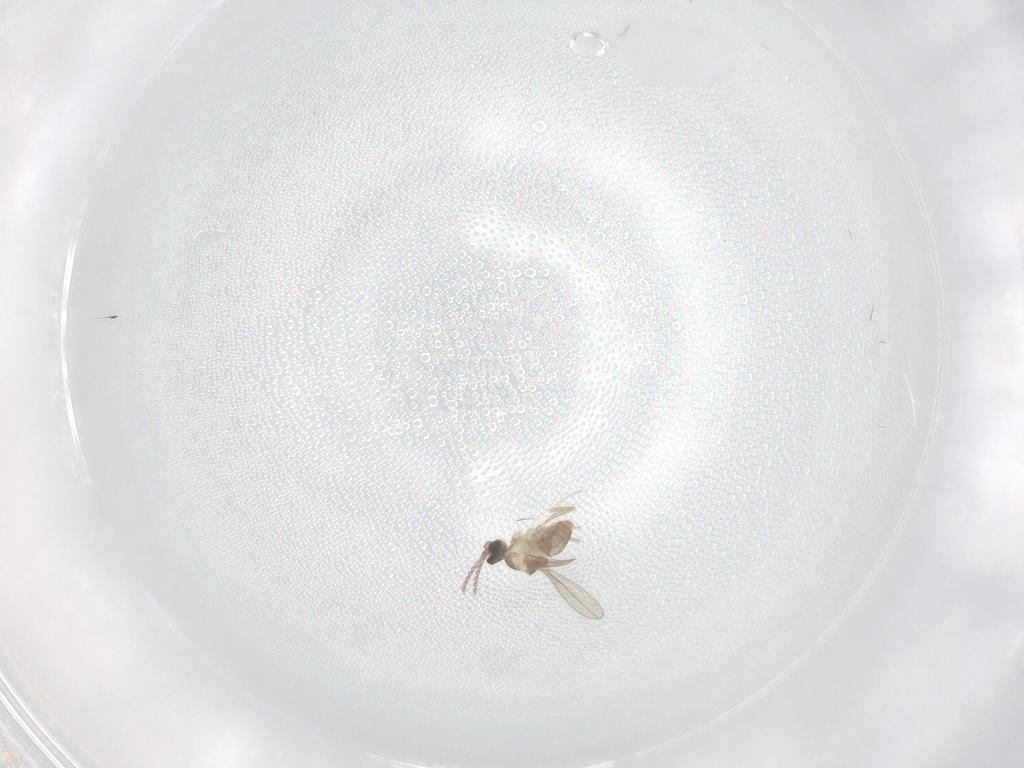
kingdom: Animalia
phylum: Arthropoda
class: Insecta
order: Diptera
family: Cecidomyiidae
